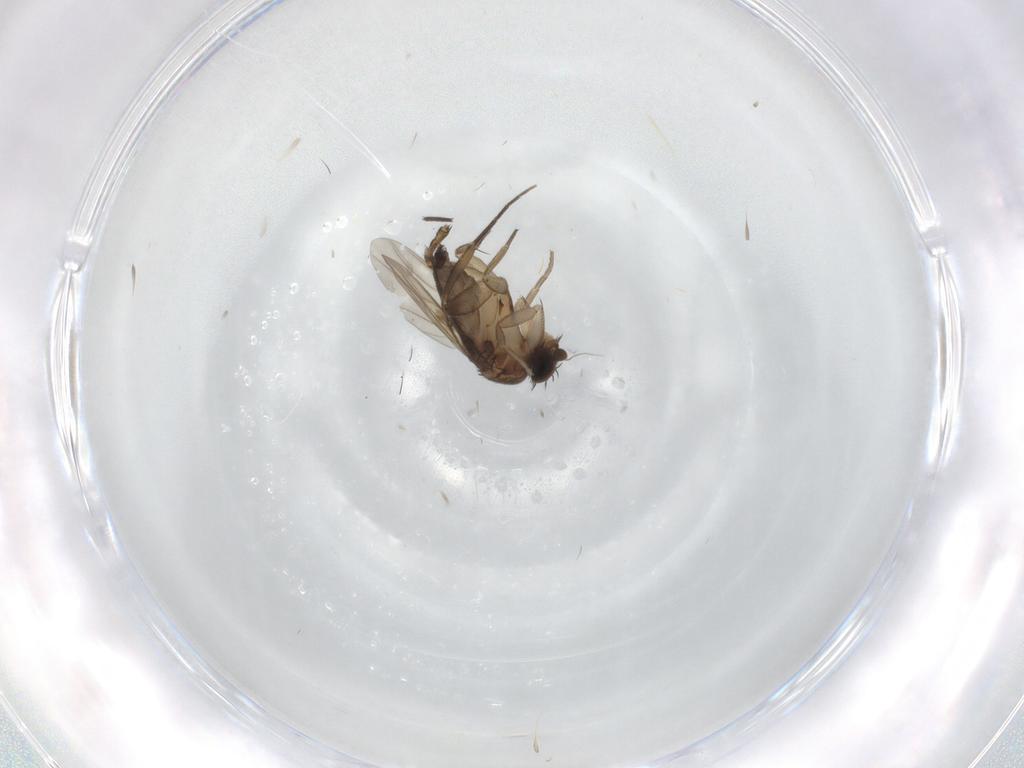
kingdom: Animalia
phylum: Arthropoda
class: Insecta
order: Diptera
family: Phoridae
